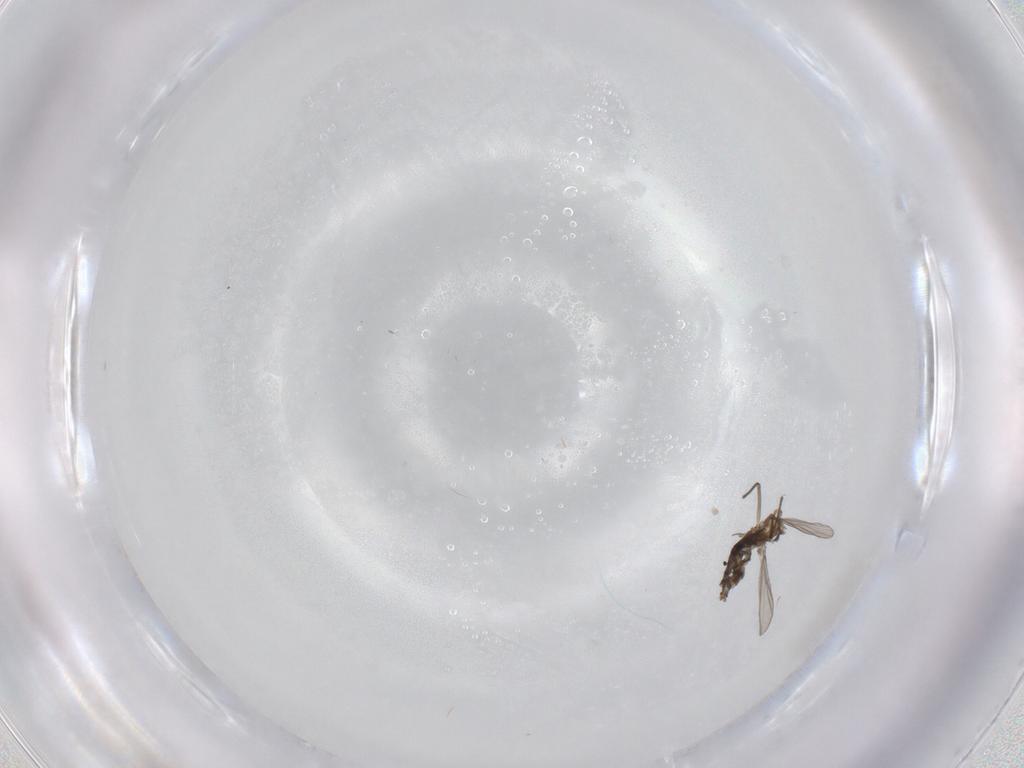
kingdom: Animalia
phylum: Arthropoda
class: Insecta
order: Diptera
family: Chironomidae
